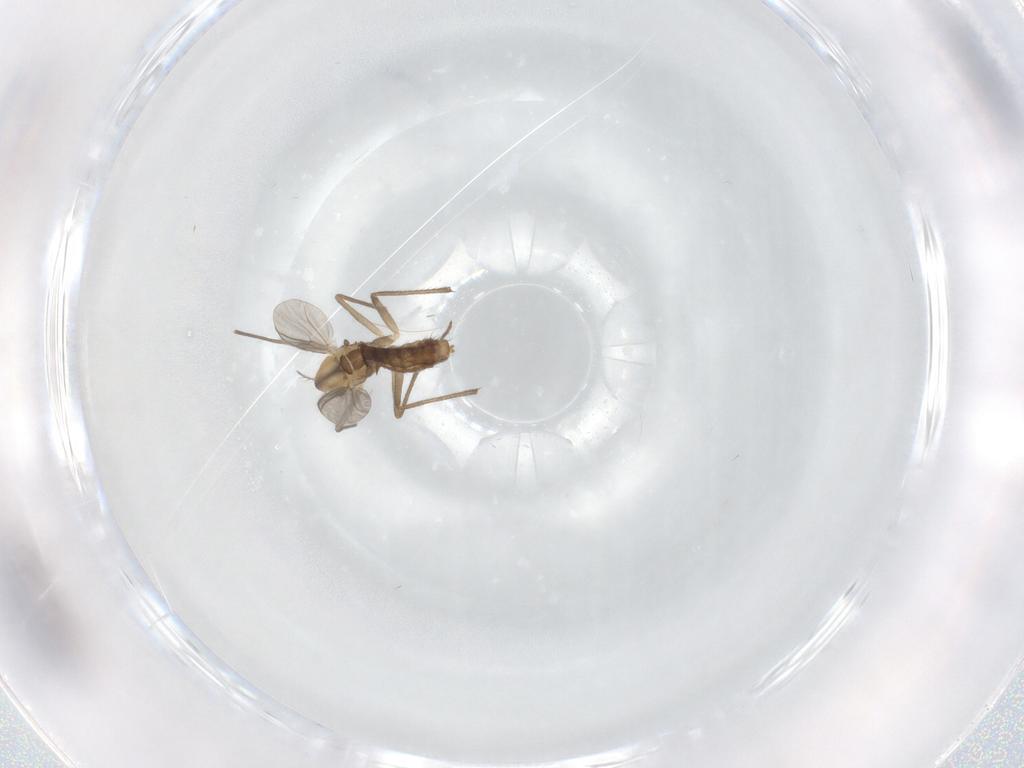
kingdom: Animalia
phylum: Arthropoda
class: Insecta
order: Diptera
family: Chironomidae
